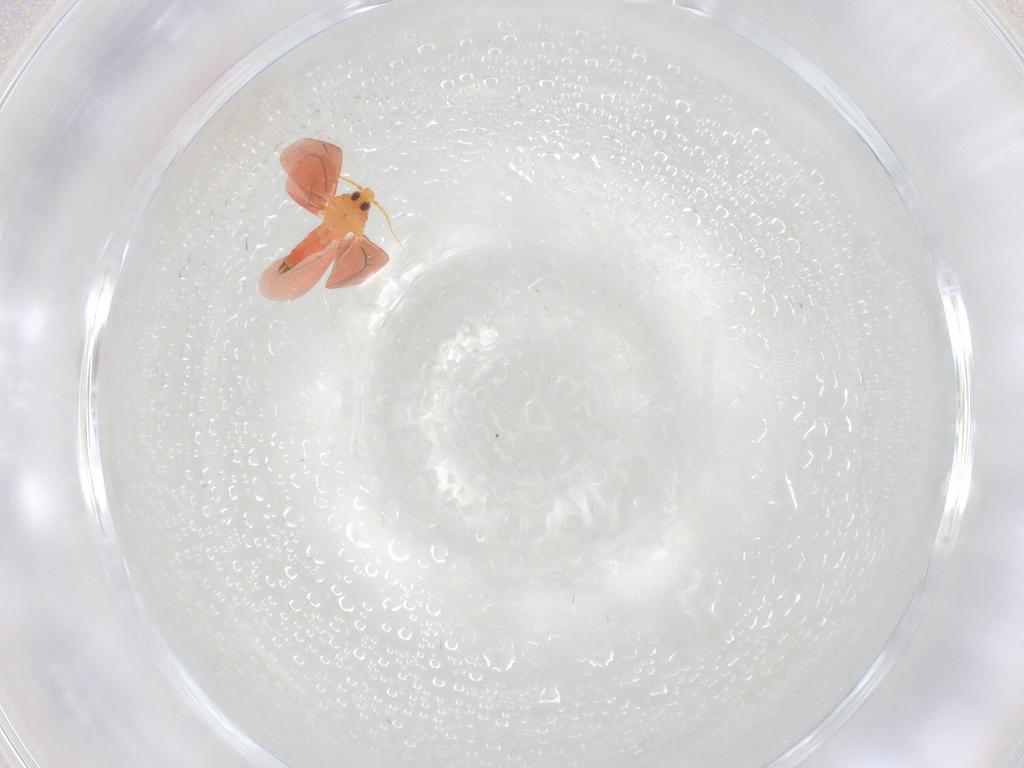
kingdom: Animalia
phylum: Arthropoda
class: Insecta
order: Hemiptera
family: Aleyrodidae
